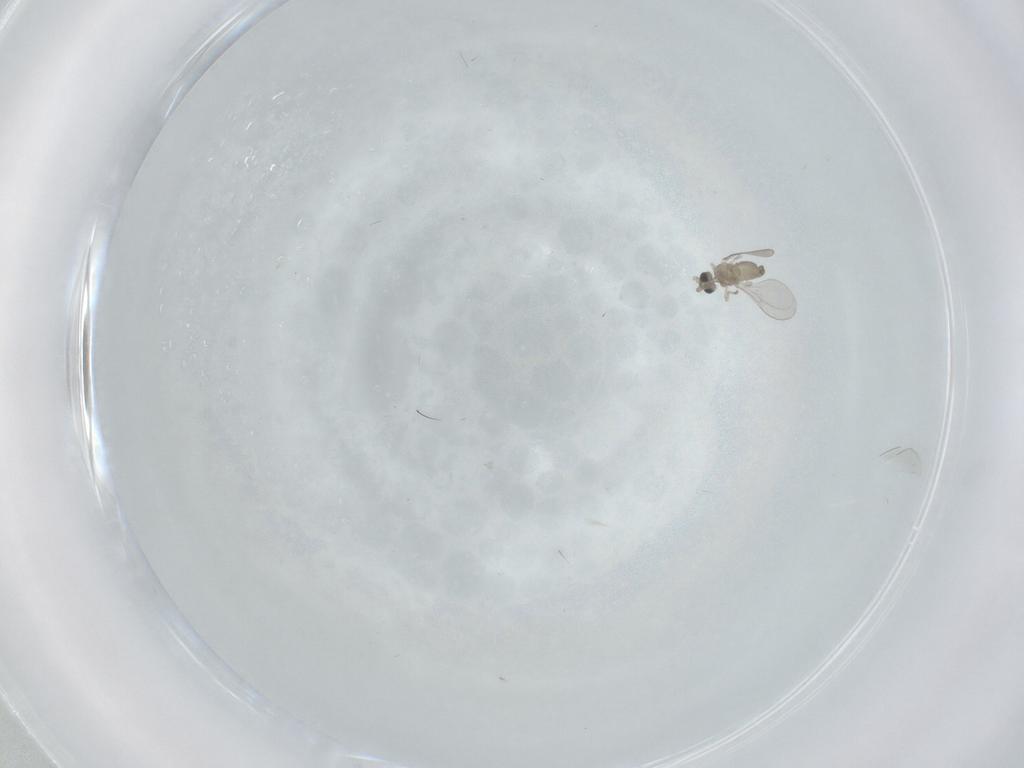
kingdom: Animalia
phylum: Arthropoda
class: Insecta
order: Diptera
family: Cecidomyiidae
